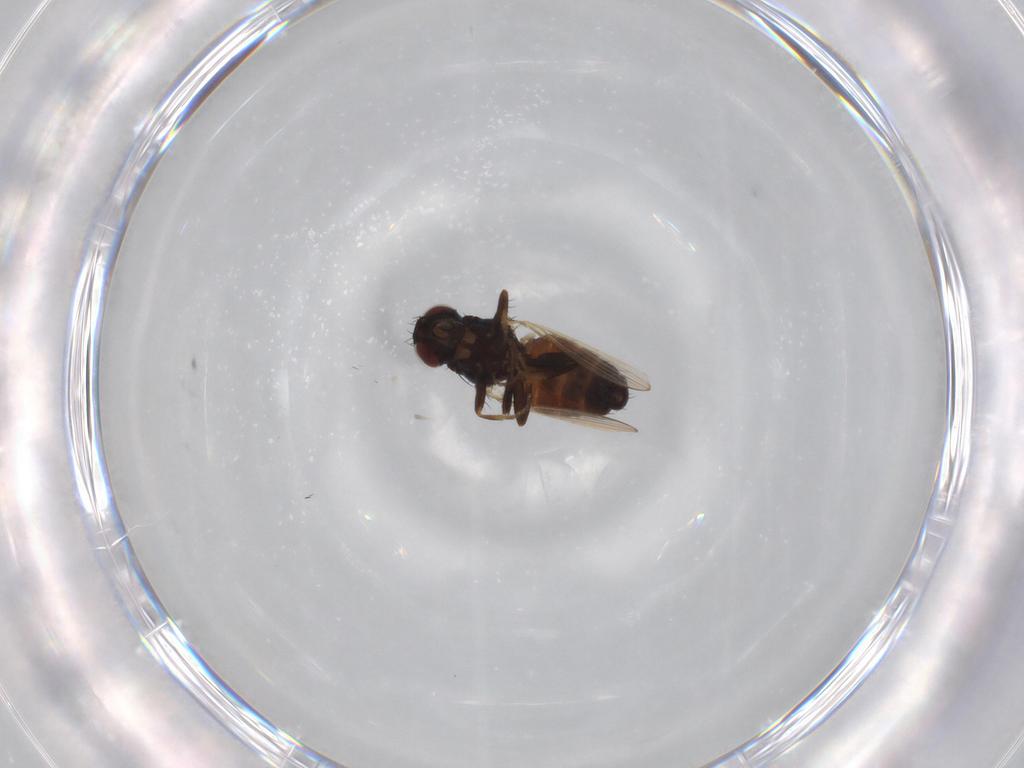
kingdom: Animalia
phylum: Arthropoda
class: Insecta
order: Diptera
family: Carnidae
